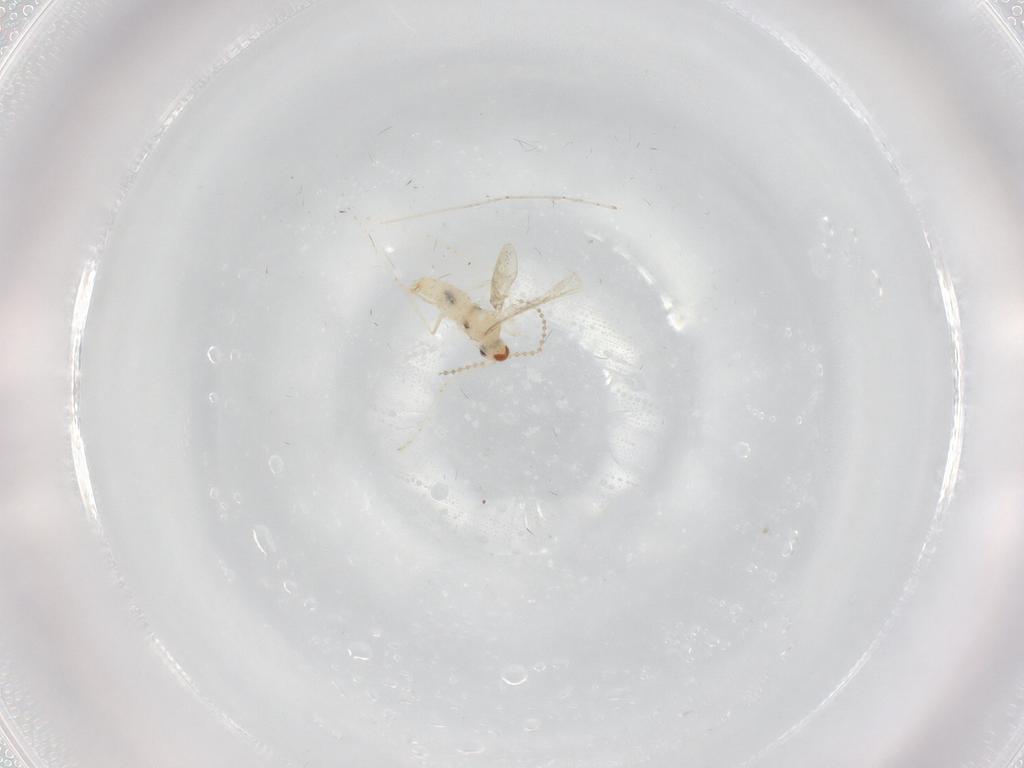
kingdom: Animalia
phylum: Arthropoda
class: Insecta
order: Diptera
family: Cecidomyiidae
